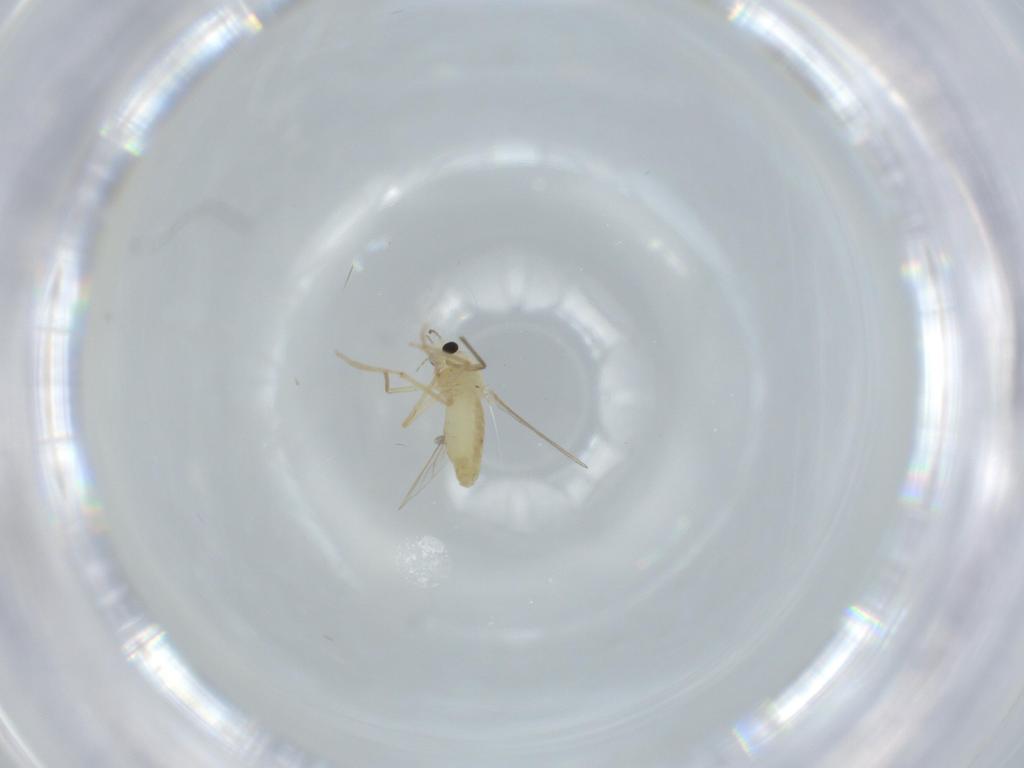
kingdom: Animalia
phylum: Arthropoda
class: Insecta
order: Diptera
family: Chironomidae
